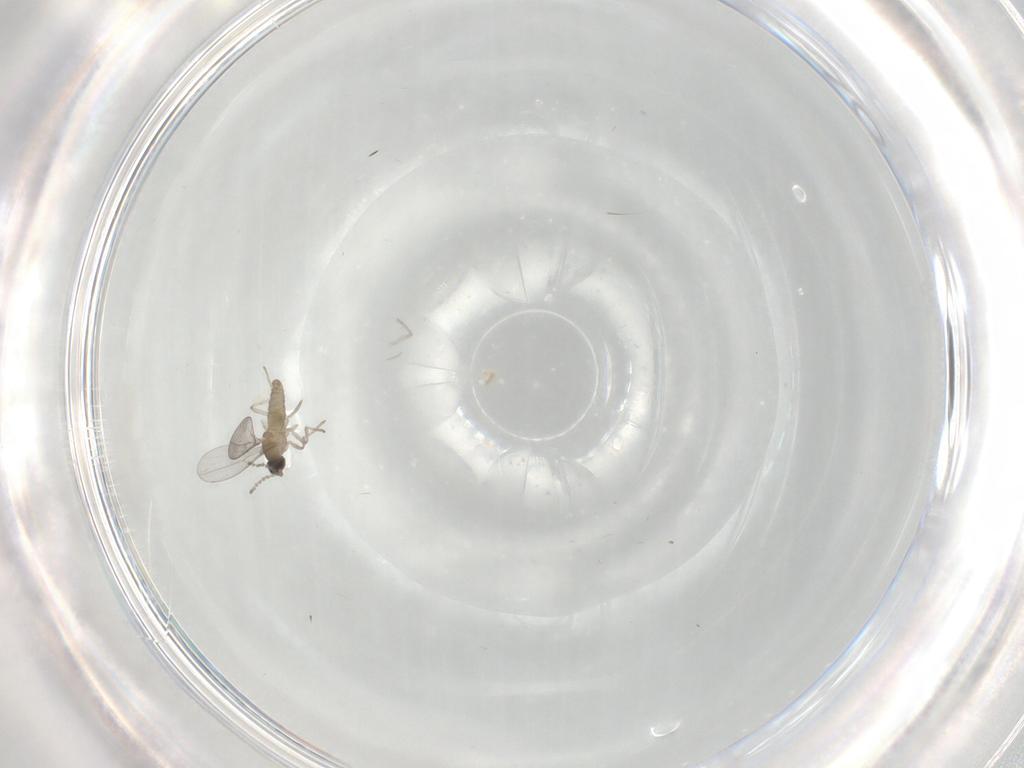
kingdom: Animalia
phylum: Arthropoda
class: Insecta
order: Diptera
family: Cecidomyiidae
